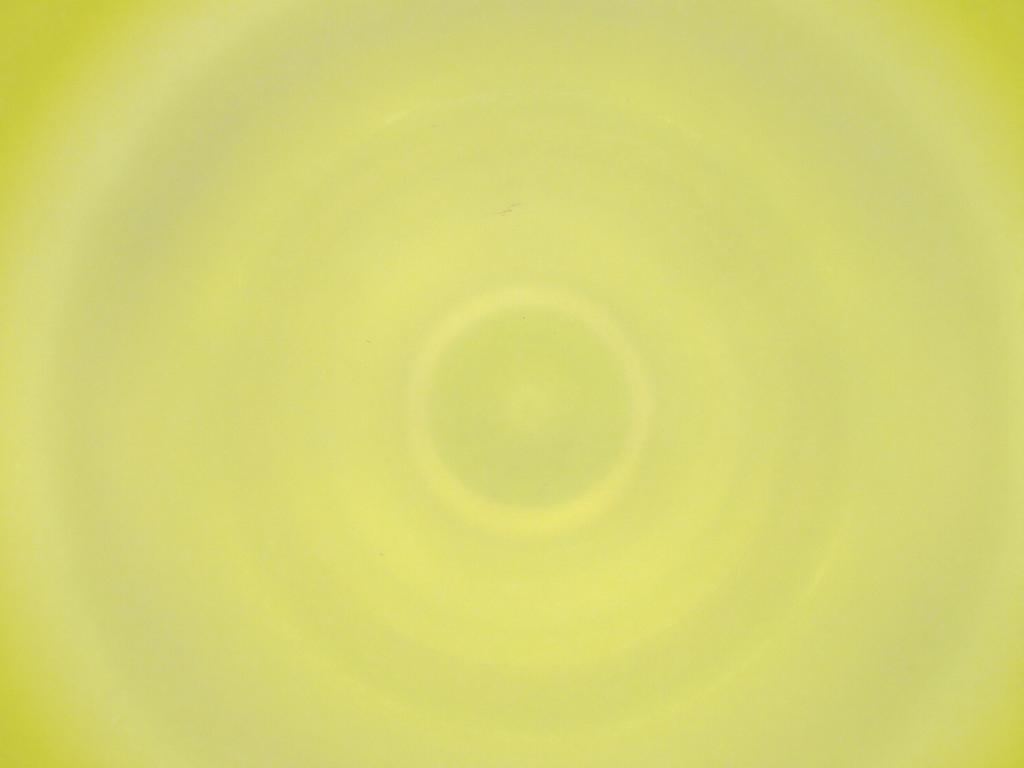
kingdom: Animalia
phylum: Arthropoda
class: Insecta
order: Diptera
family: Cecidomyiidae
